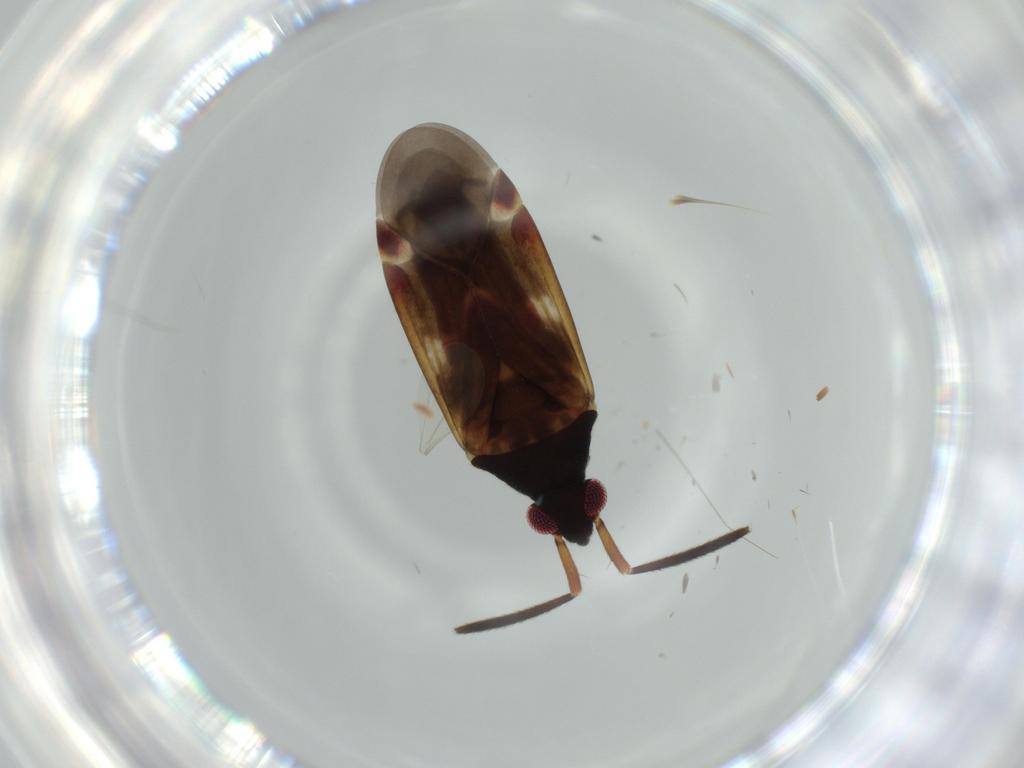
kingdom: Animalia
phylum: Arthropoda
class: Insecta
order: Hemiptera
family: Miridae
